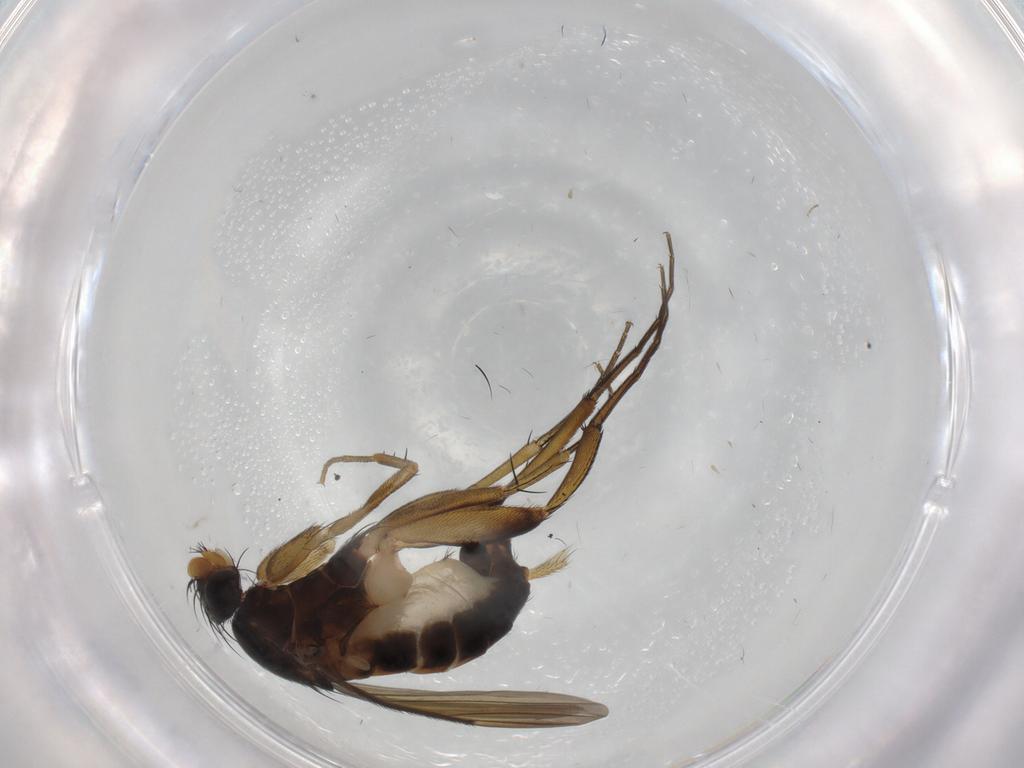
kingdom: Animalia
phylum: Arthropoda
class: Insecta
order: Diptera
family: Phoridae
